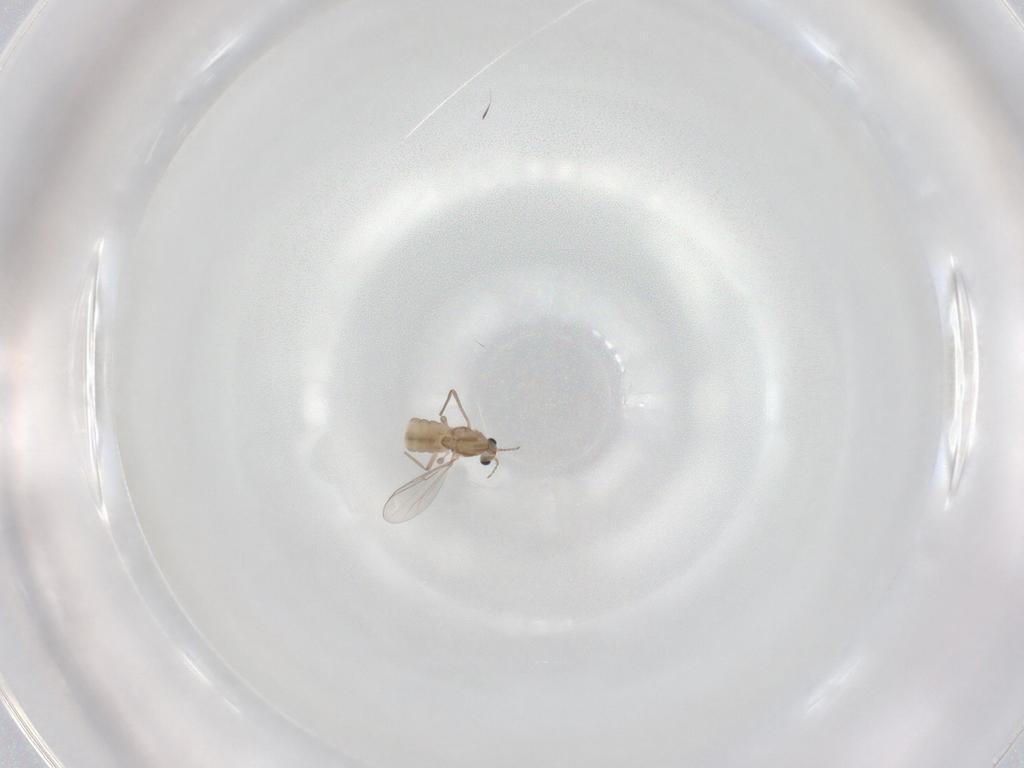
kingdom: Animalia
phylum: Arthropoda
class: Insecta
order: Diptera
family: Chironomidae
